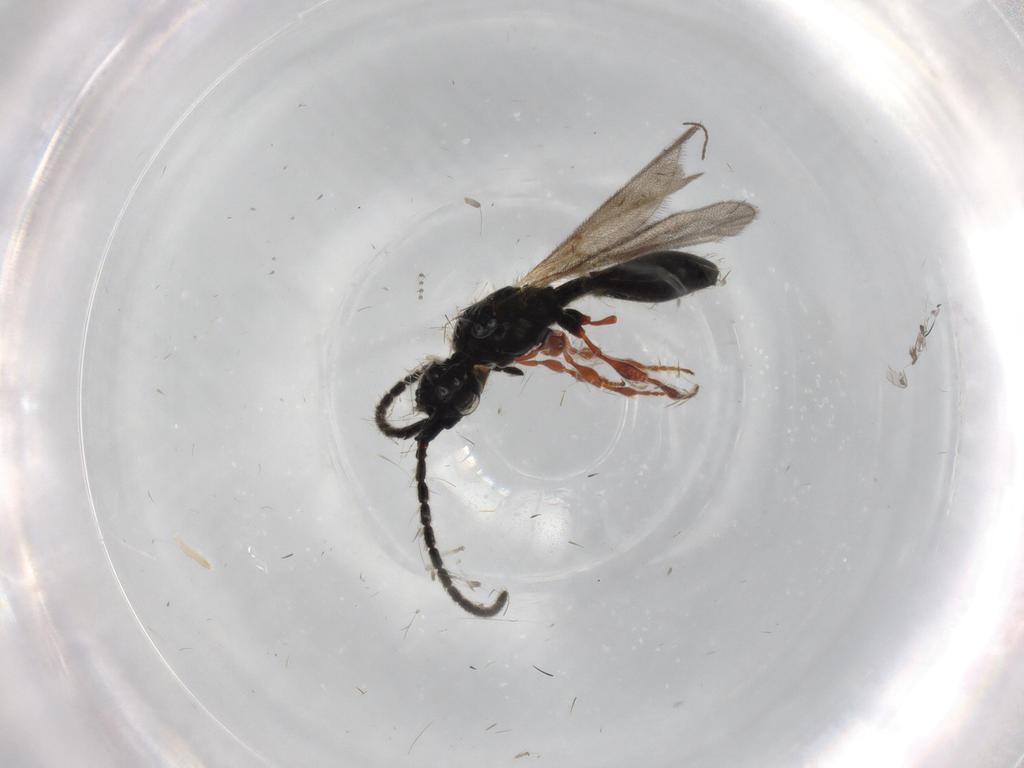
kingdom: Animalia
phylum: Arthropoda
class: Insecta
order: Hymenoptera
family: Diapriidae
